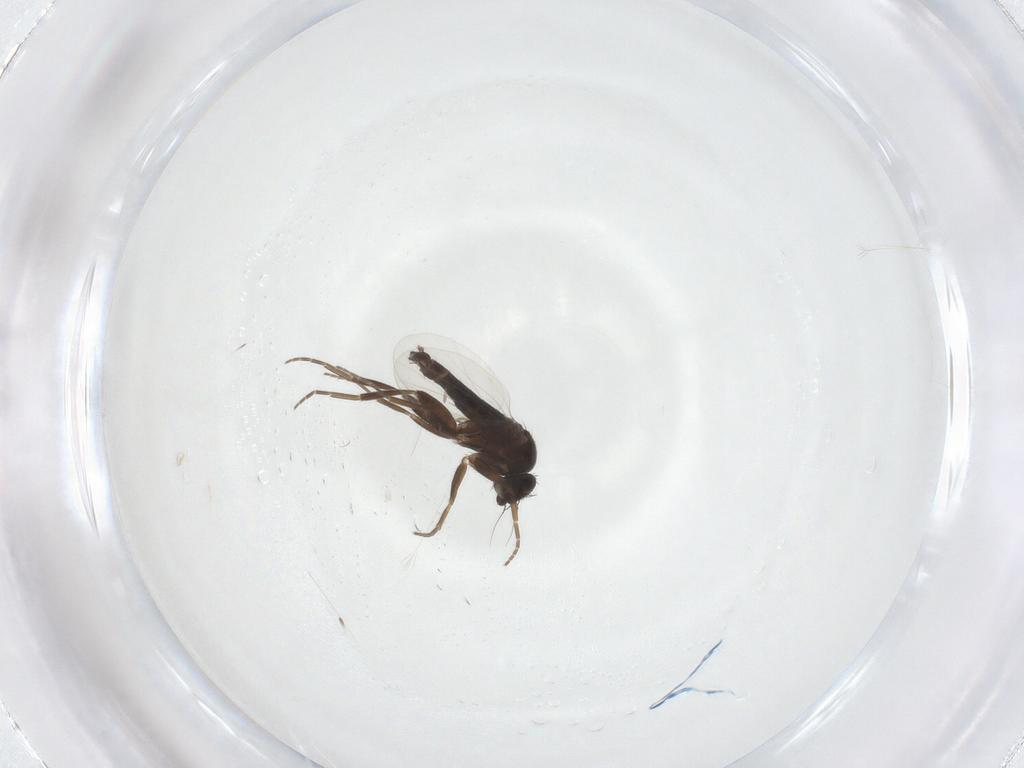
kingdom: Animalia
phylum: Arthropoda
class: Insecta
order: Diptera
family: Phoridae
